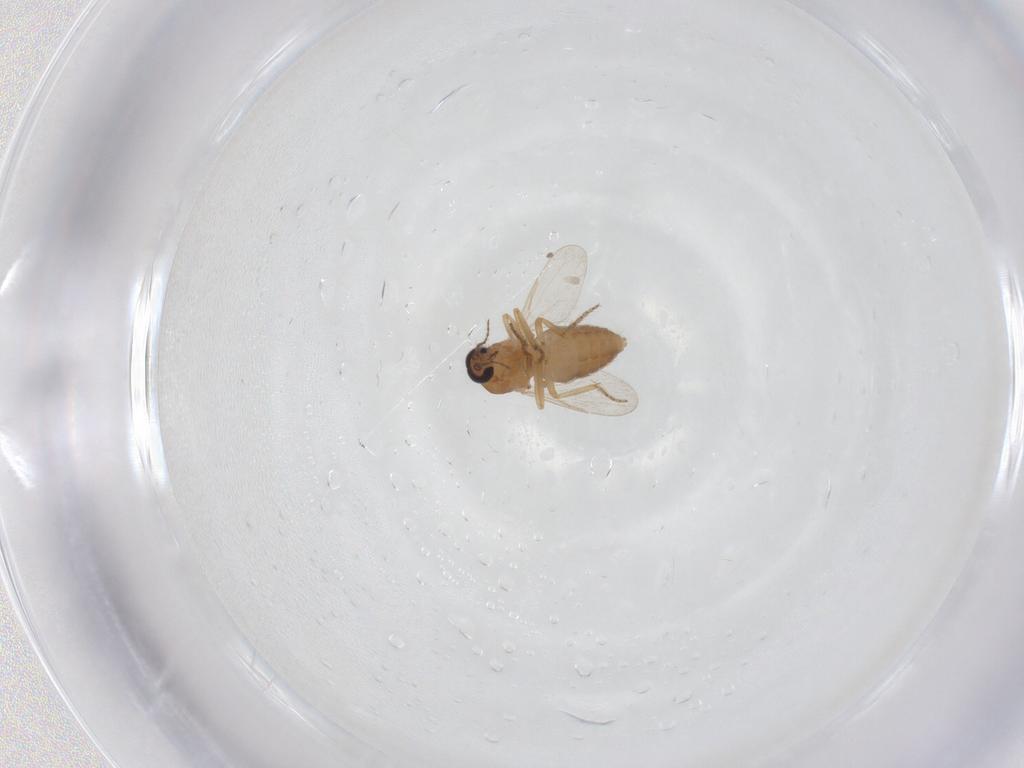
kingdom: Animalia
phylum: Arthropoda
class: Insecta
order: Diptera
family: Ceratopogonidae
